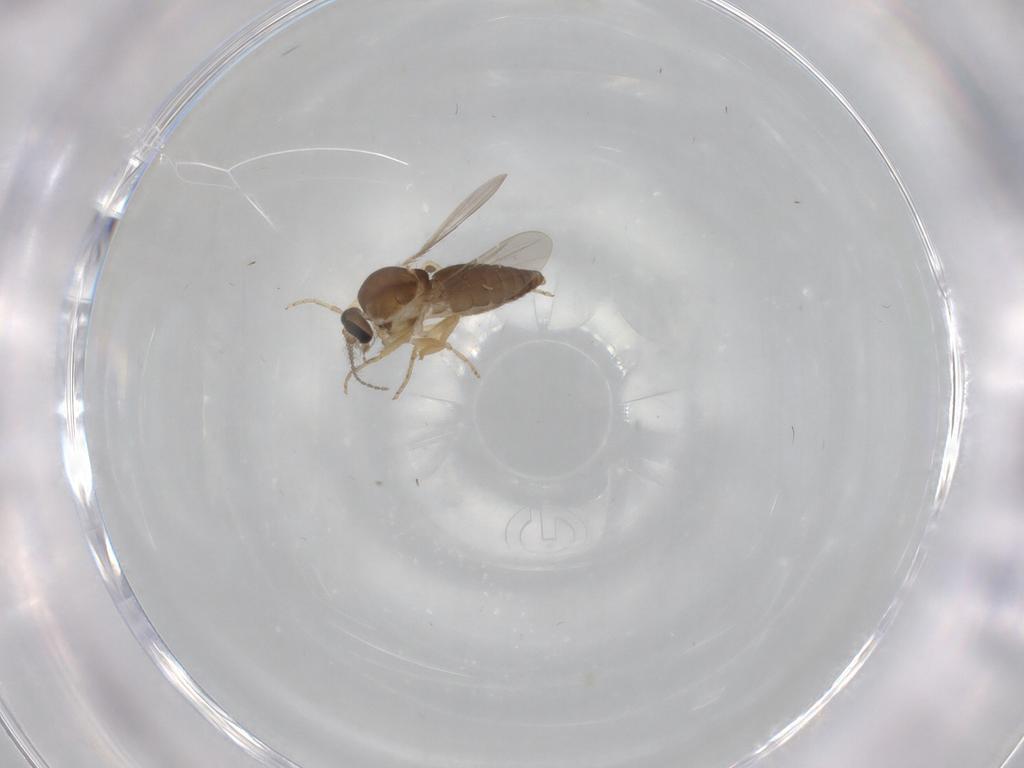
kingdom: Animalia
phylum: Arthropoda
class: Insecta
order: Diptera
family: Ceratopogonidae
